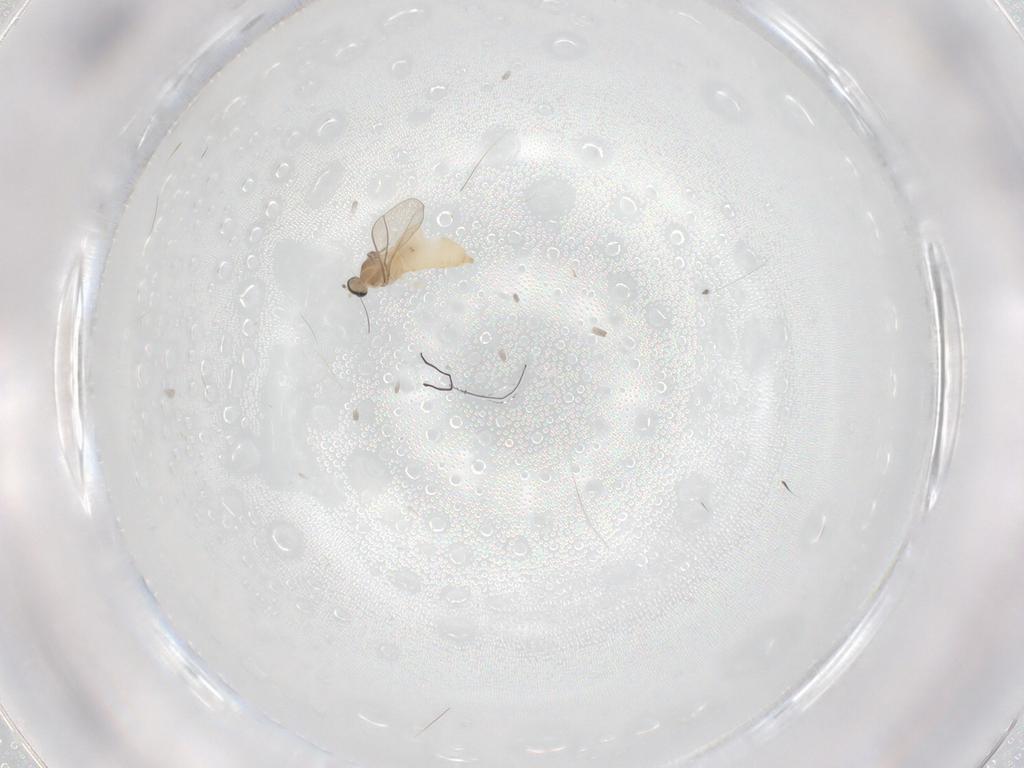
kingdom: Animalia
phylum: Arthropoda
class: Insecta
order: Diptera
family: Cecidomyiidae
